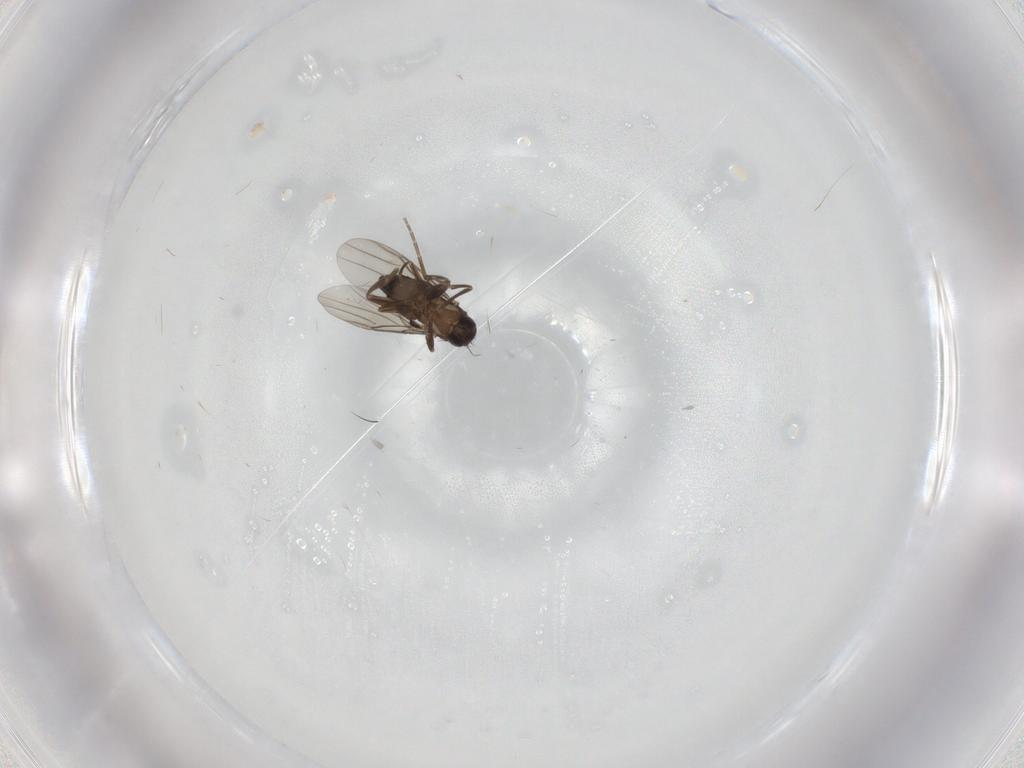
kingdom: Animalia
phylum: Arthropoda
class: Insecta
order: Diptera
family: Phoridae
